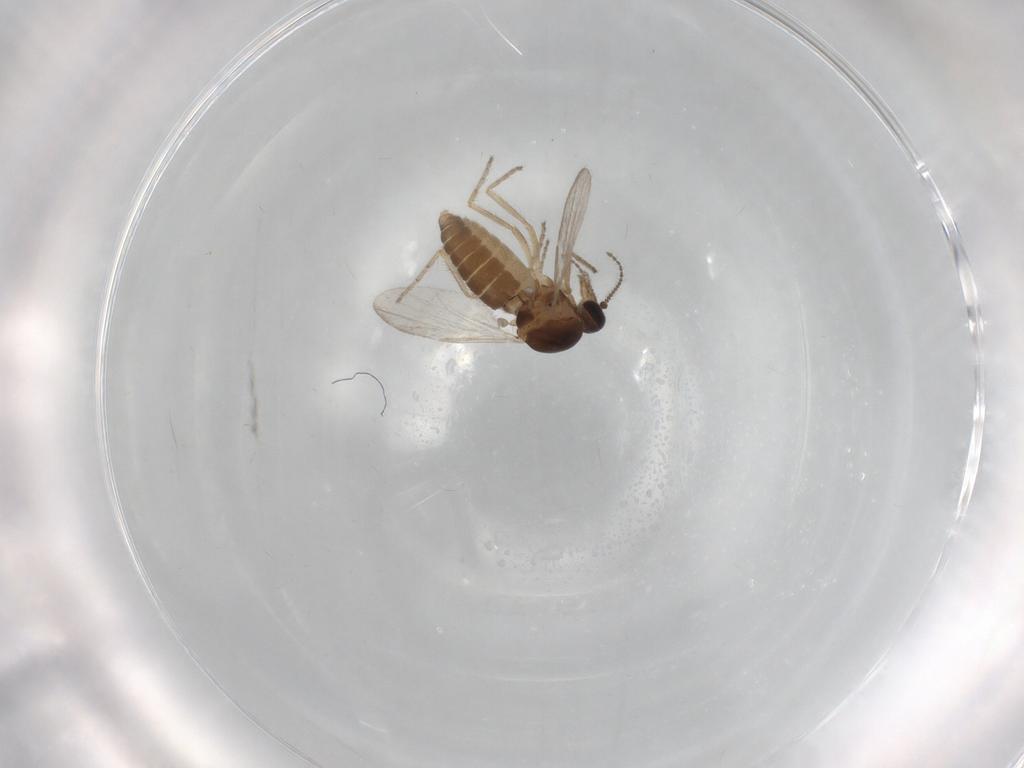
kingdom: Animalia
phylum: Arthropoda
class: Insecta
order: Diptera
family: Ceratopogonidae
